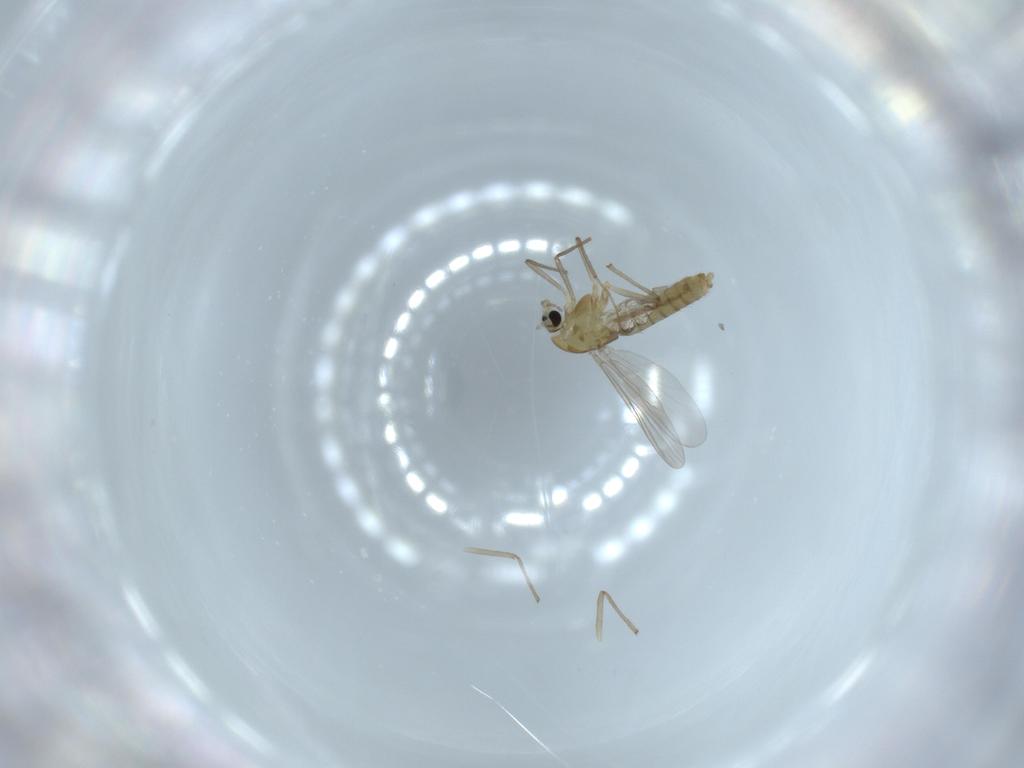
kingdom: Animalia
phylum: Arthropoda
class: Insecta
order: Diptera
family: Chironomidae
